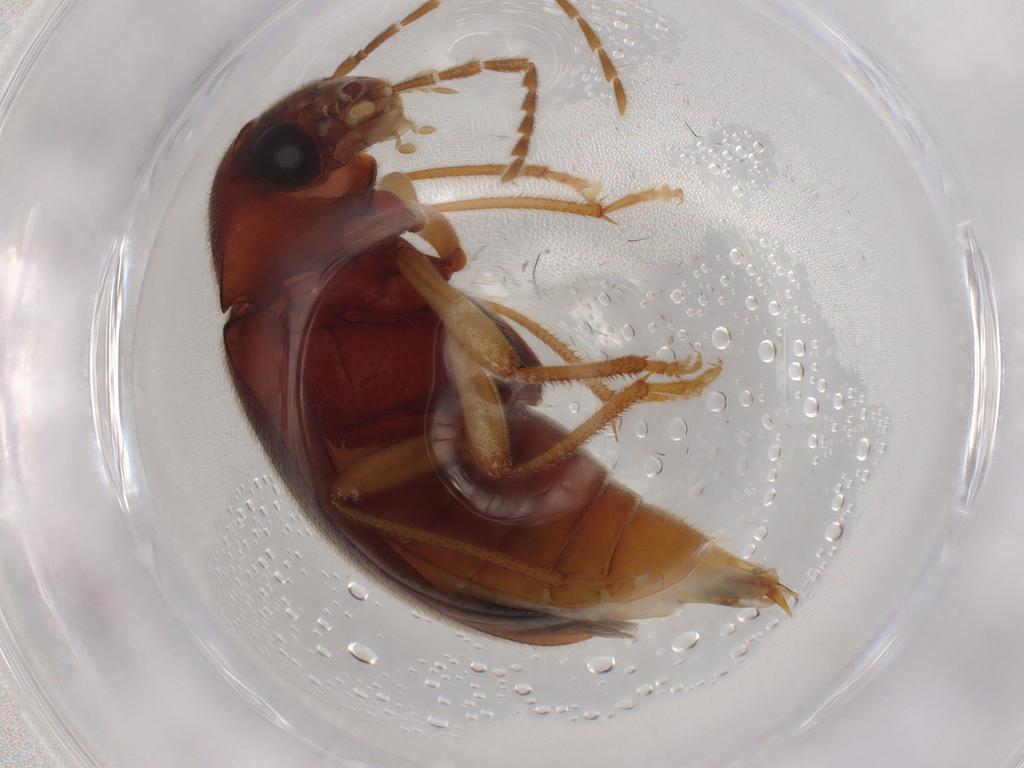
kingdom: Animalia
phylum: Arthropoda
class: Insecta
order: Coleoptera
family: Ptilodactylidae
